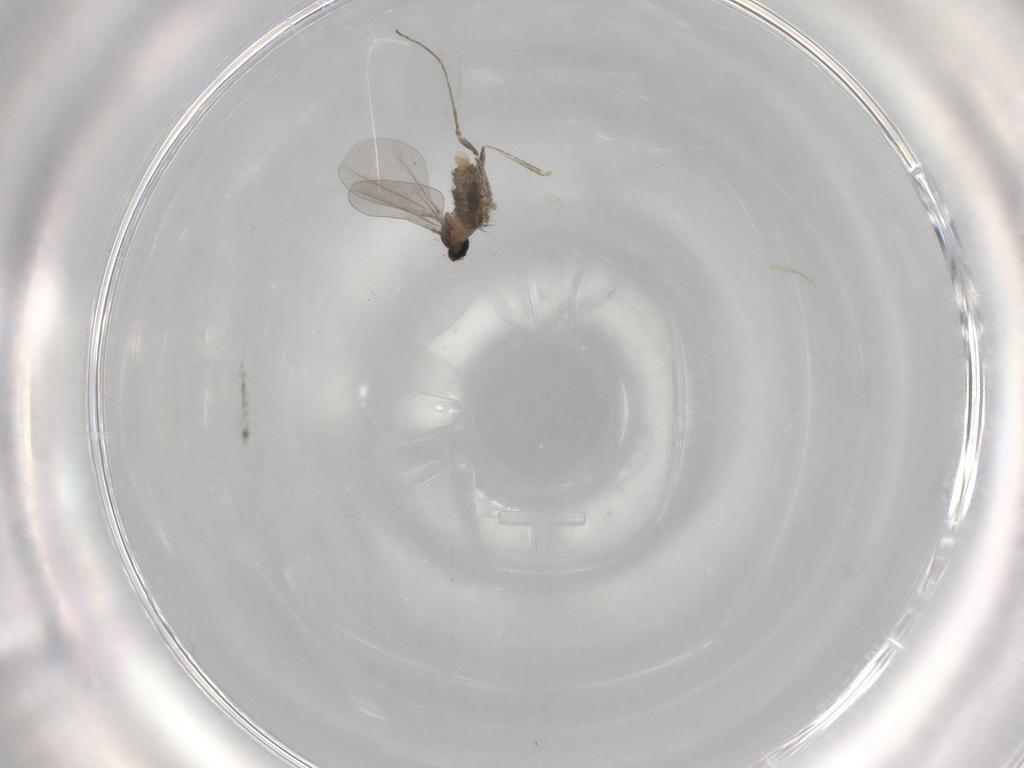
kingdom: Animalia
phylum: Arthropoda
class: Insecta
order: Diptera
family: Cecidomyiidae
